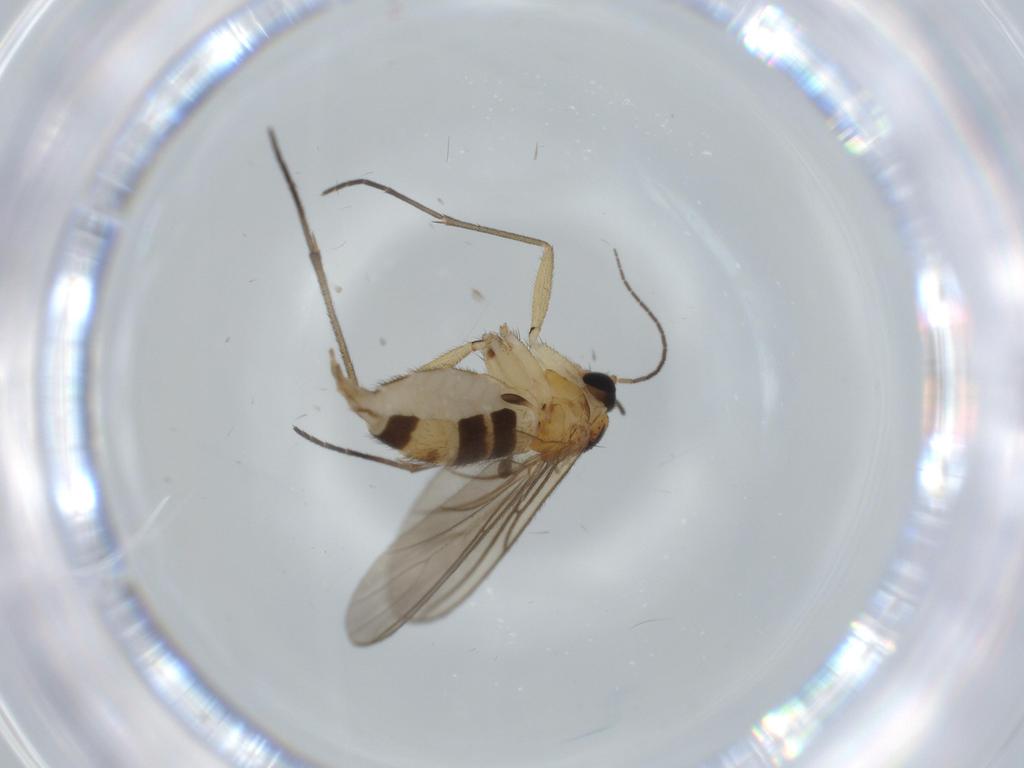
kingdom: Animalia
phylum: Arthropoda
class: Insecta
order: Diptera
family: Sciaridae
